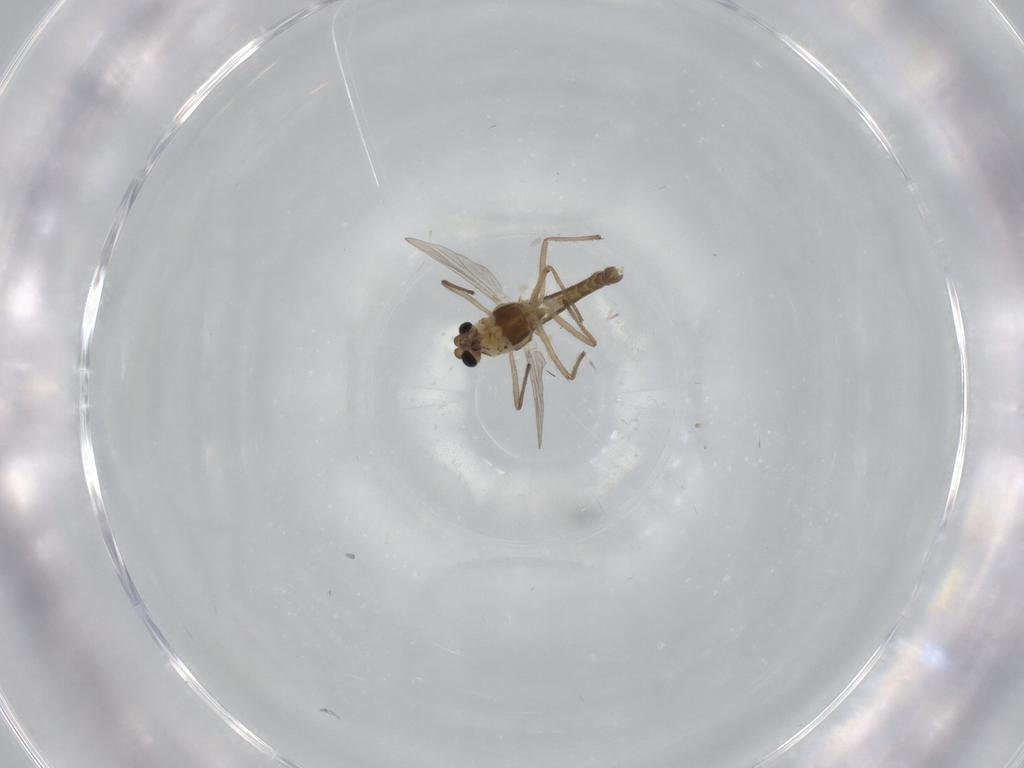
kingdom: Animalia
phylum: Arthropoda
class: Insecta
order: Diptera
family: Chironomidae
